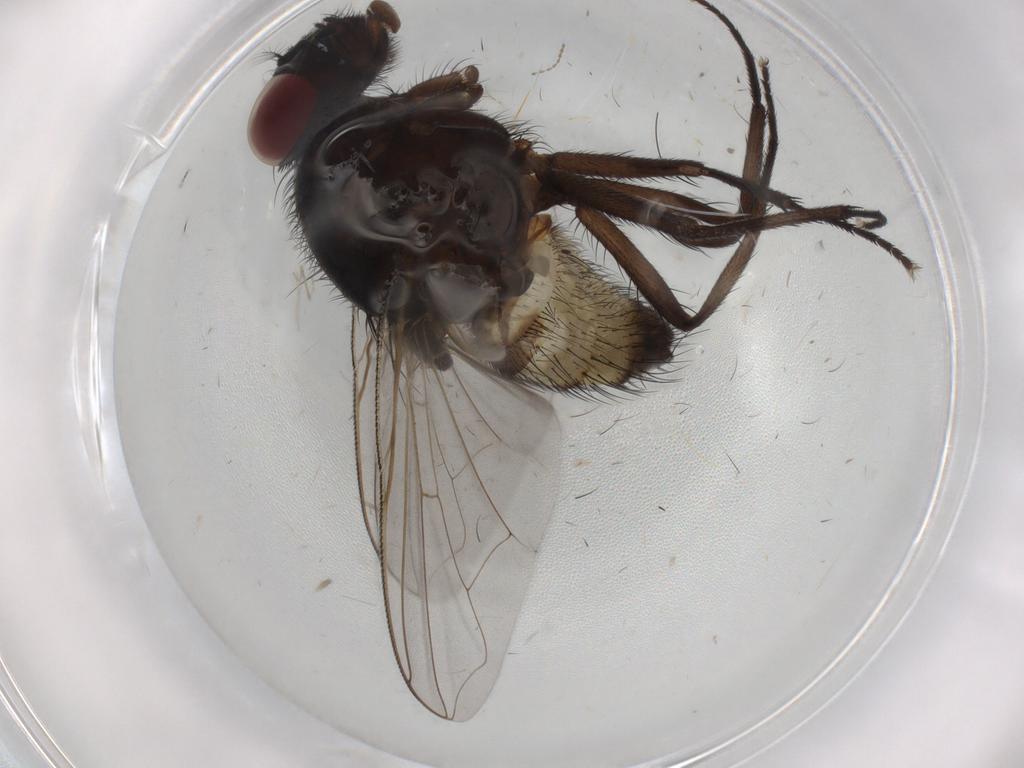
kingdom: Animalia
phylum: Arthropoda
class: Insecta
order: Diptera
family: Muscidae
